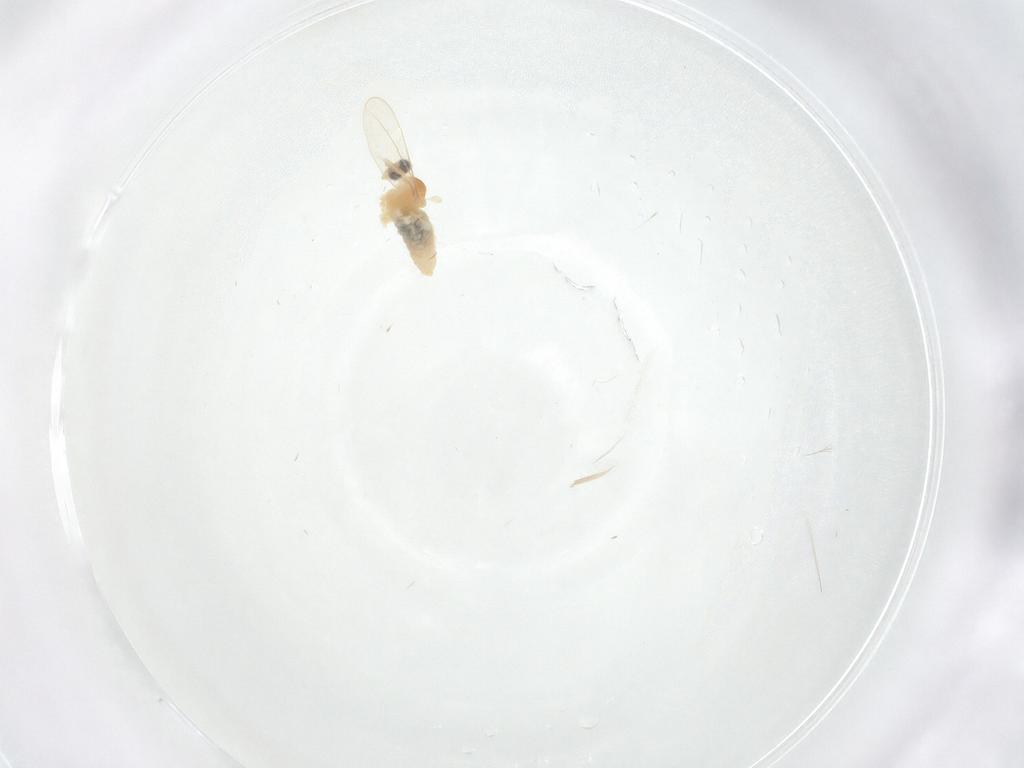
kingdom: Animalia
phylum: Arthropoda
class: Insecta
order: Diptera
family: Cecidomyiidae
